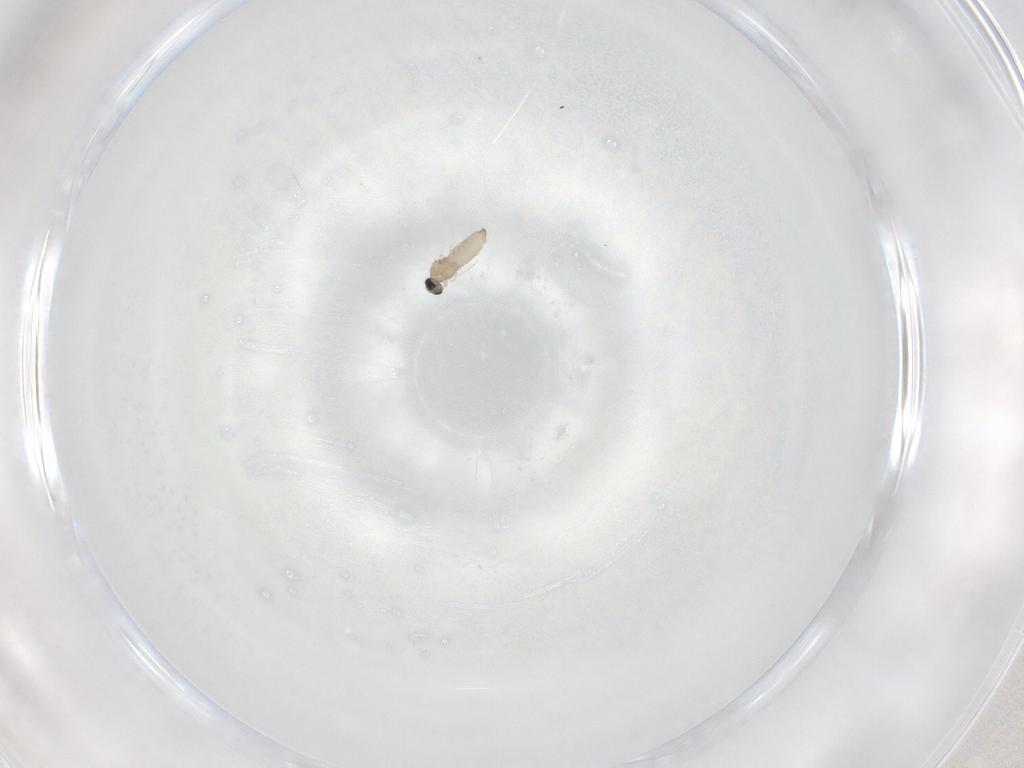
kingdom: Animalia
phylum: Arthropoda
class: Insecta
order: Diptera
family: Cecidomyiidae
